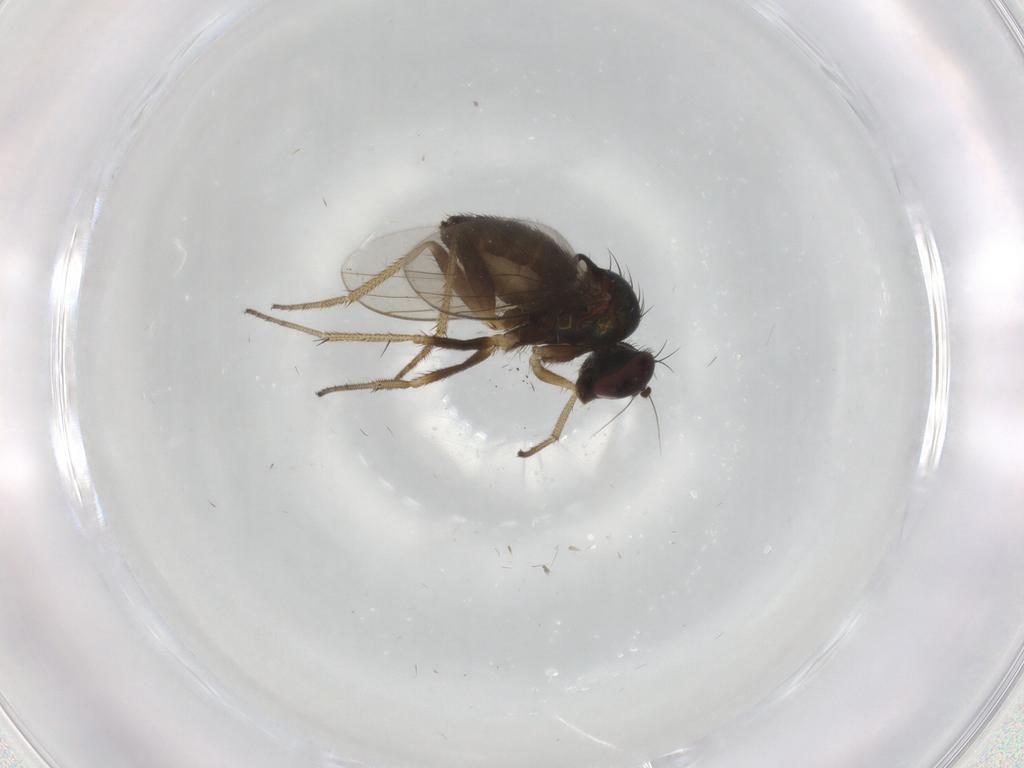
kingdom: Animalia
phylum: Arthropoda
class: Insecta
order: Diptera
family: Dolichopodidae
